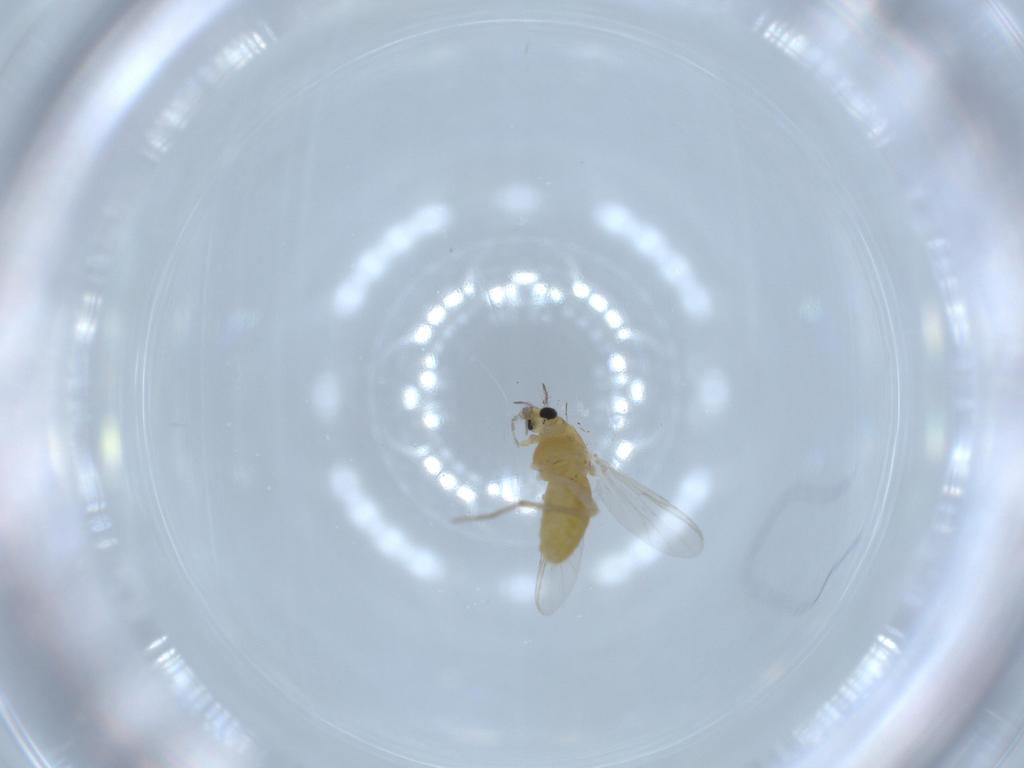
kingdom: Animalia
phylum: Arthropoda
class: Insecta
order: Diptera
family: Chironomidae
